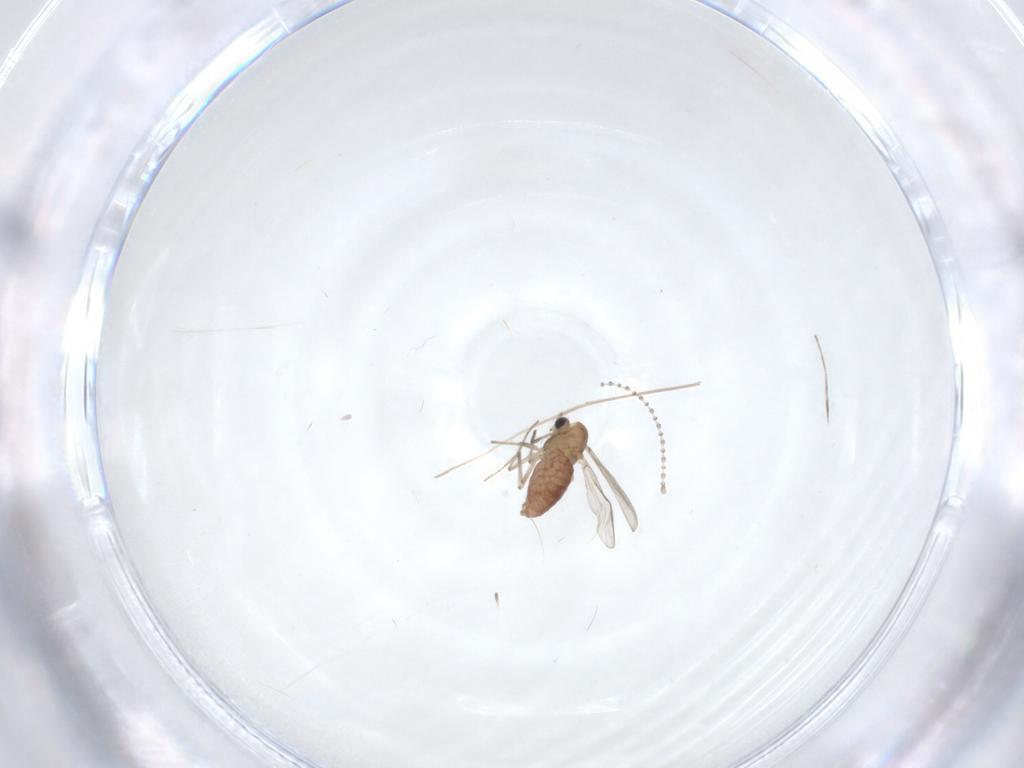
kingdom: Animalia
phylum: Arthropoda
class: Insecta
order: Diptera
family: Chironomidae
